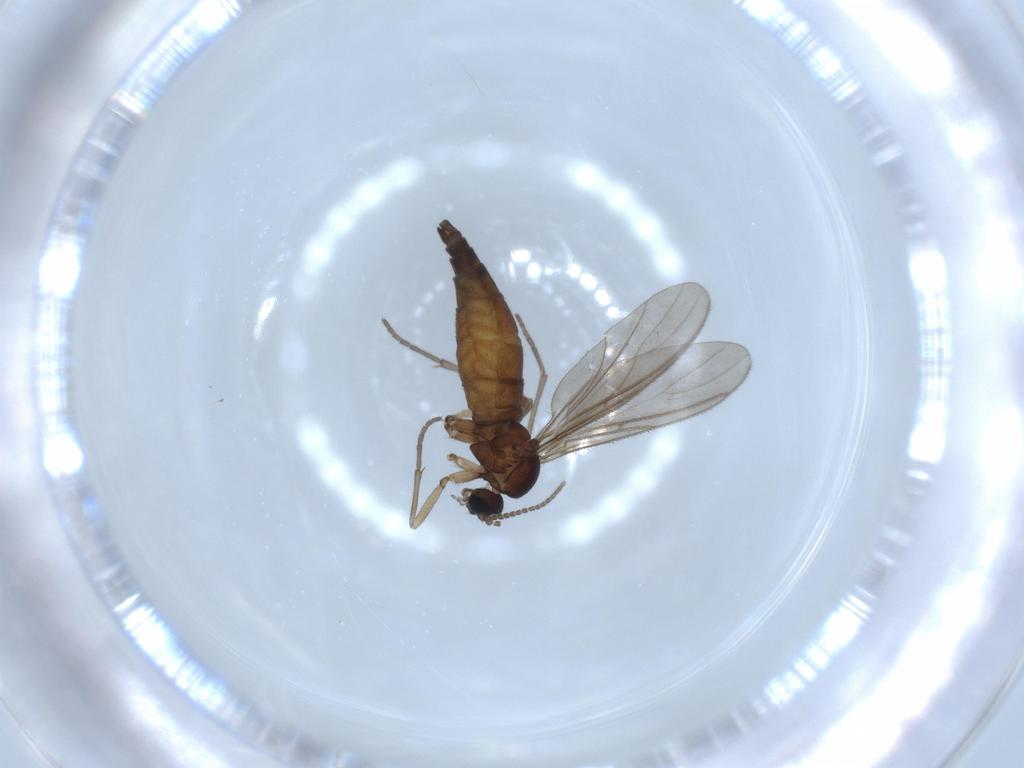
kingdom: Animalia
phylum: Arthropoda
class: Insecta
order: Diptera
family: Sciaridae
